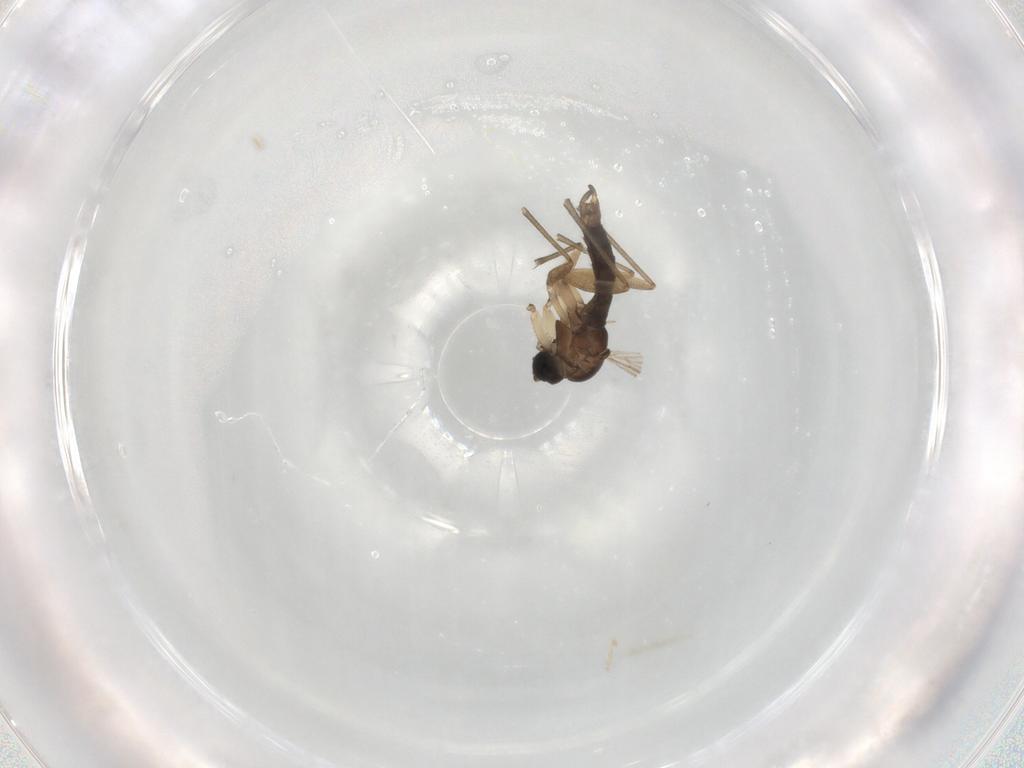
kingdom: Animalia
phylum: Arthropoda
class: Insecta
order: Diptera
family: Sciaridae
